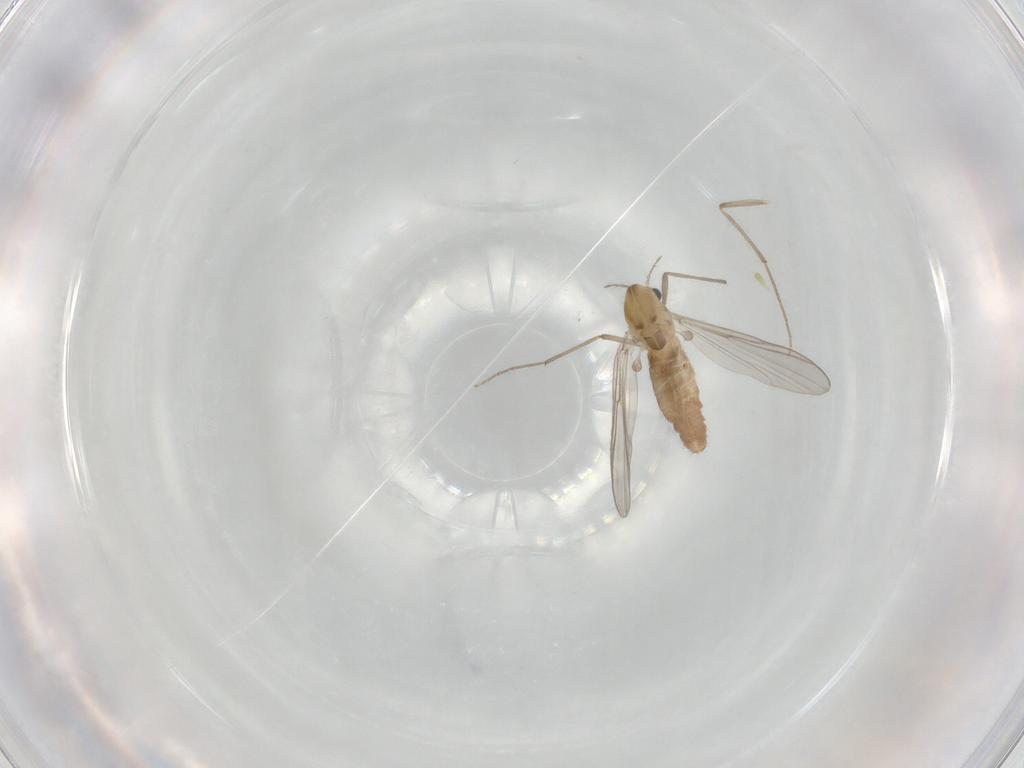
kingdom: Animalia
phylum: Arthropoda
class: Insecta
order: Diptera
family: Chironomidae
